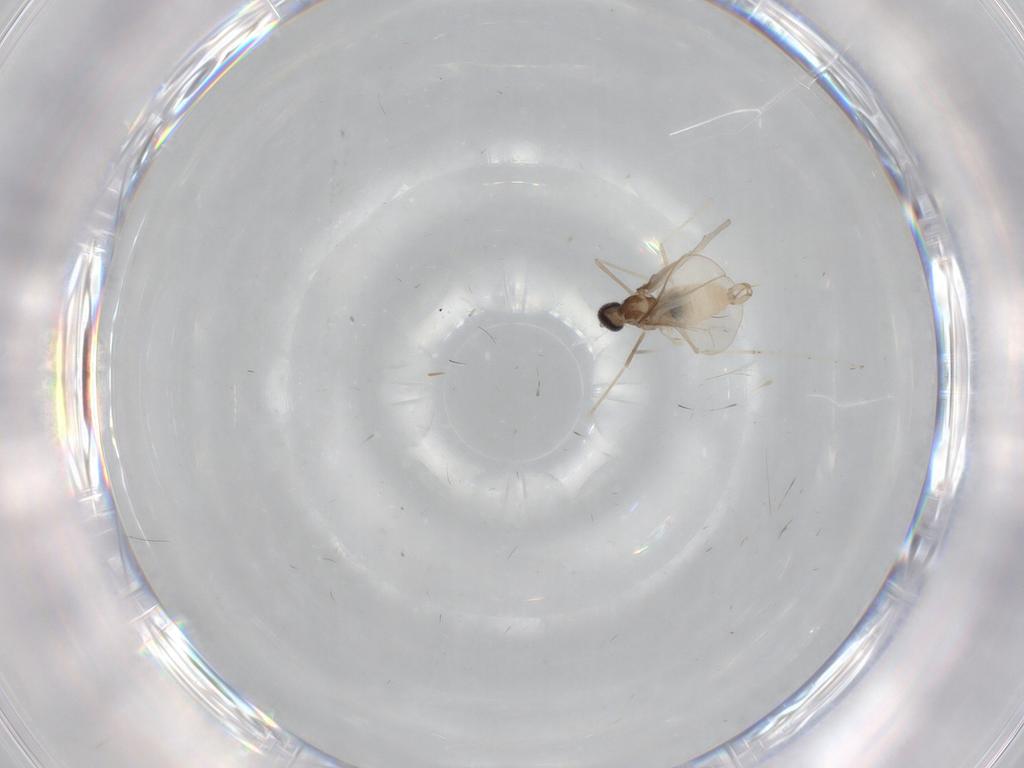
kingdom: Animalia
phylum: Arthropoda
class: Insecta
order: Diptera
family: Cecidomyiidae
